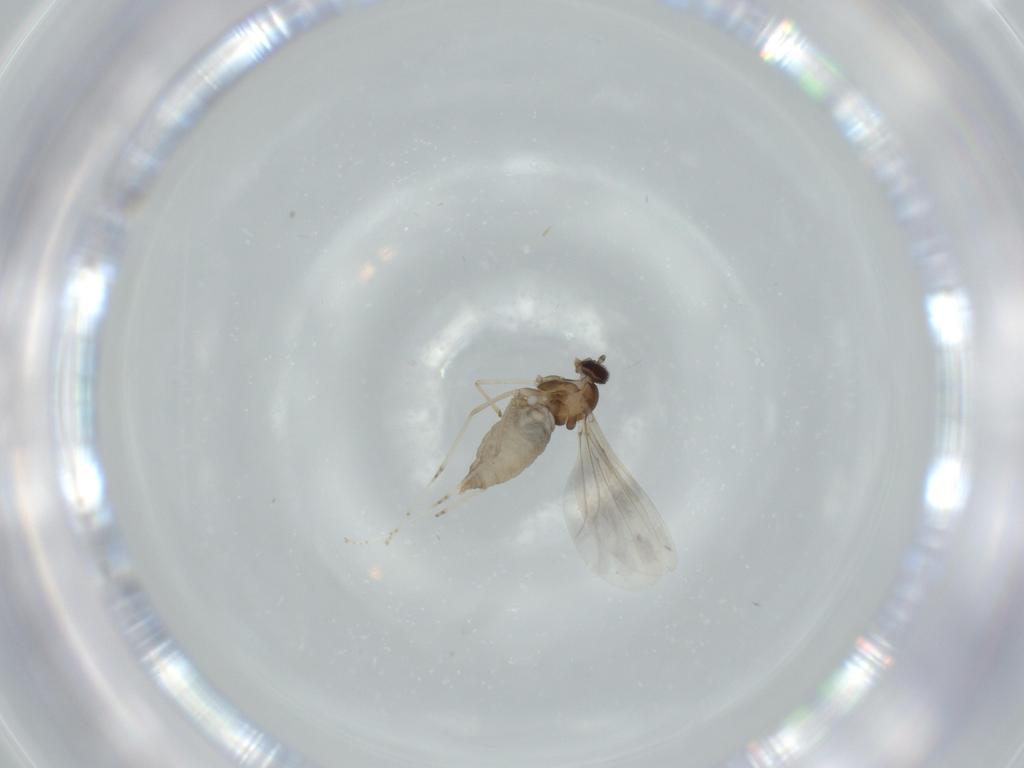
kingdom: Animalia
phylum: Arthropoda
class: Insecta
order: Diptera
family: Cecidomyiidae
